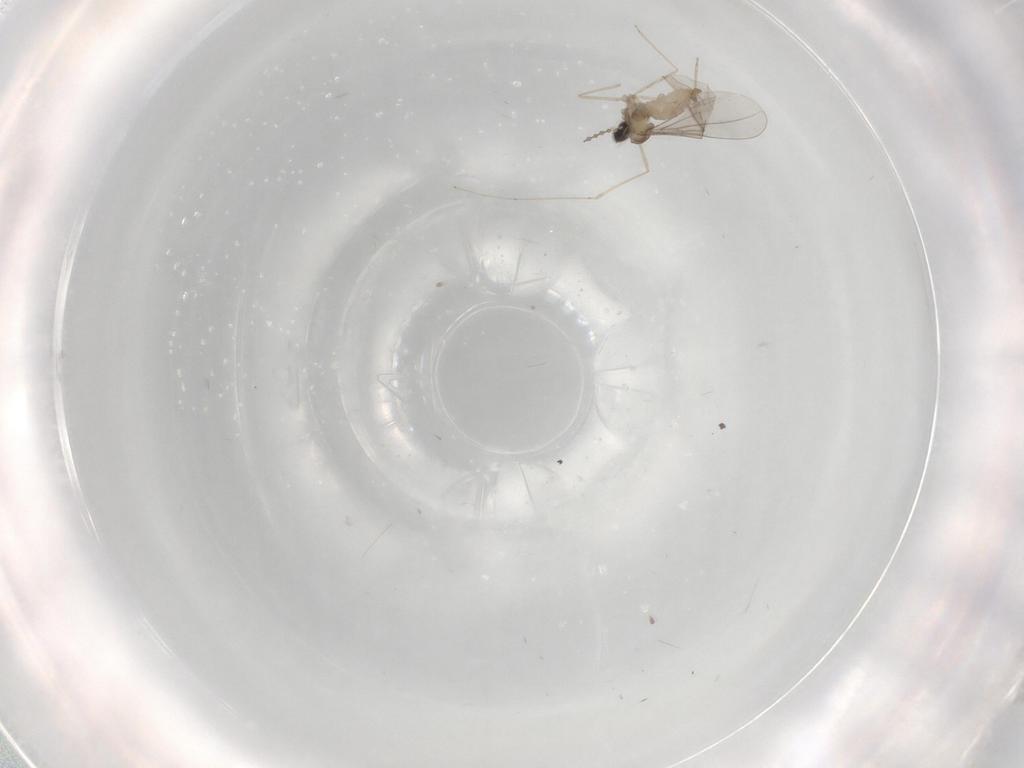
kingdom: Animalia
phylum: Arthropoda
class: Insecta
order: Diptera
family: Cecidomyiidae
